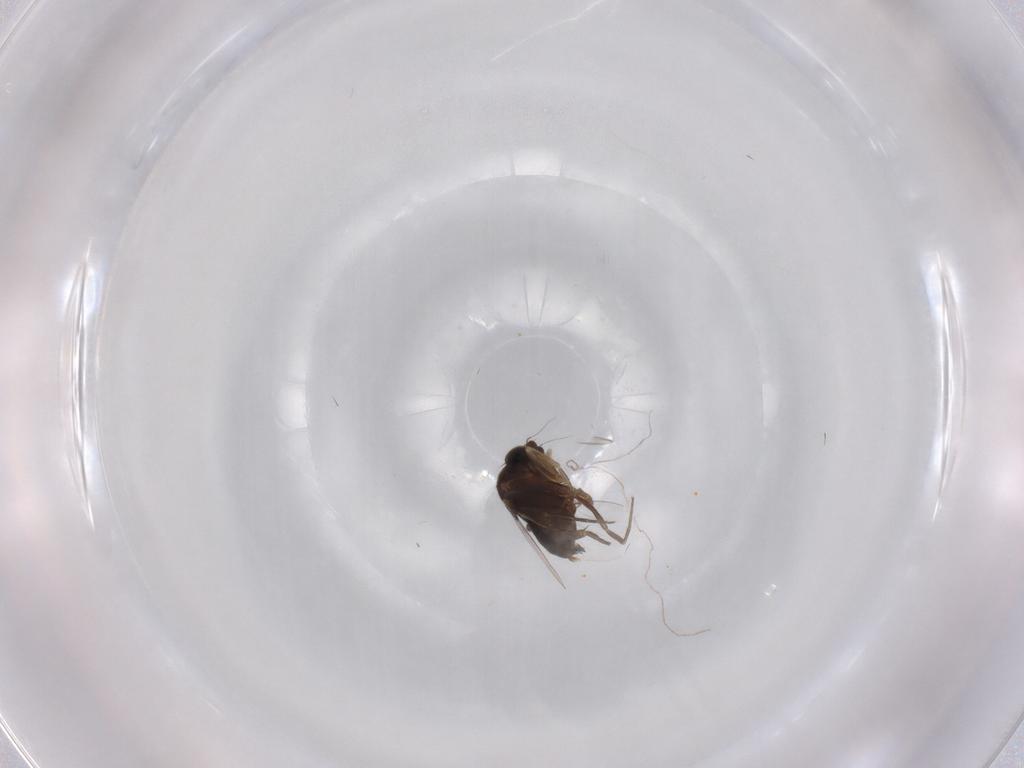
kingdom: Animalia
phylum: Arthropoda
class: Insecta
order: Diptera
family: Phoridae
